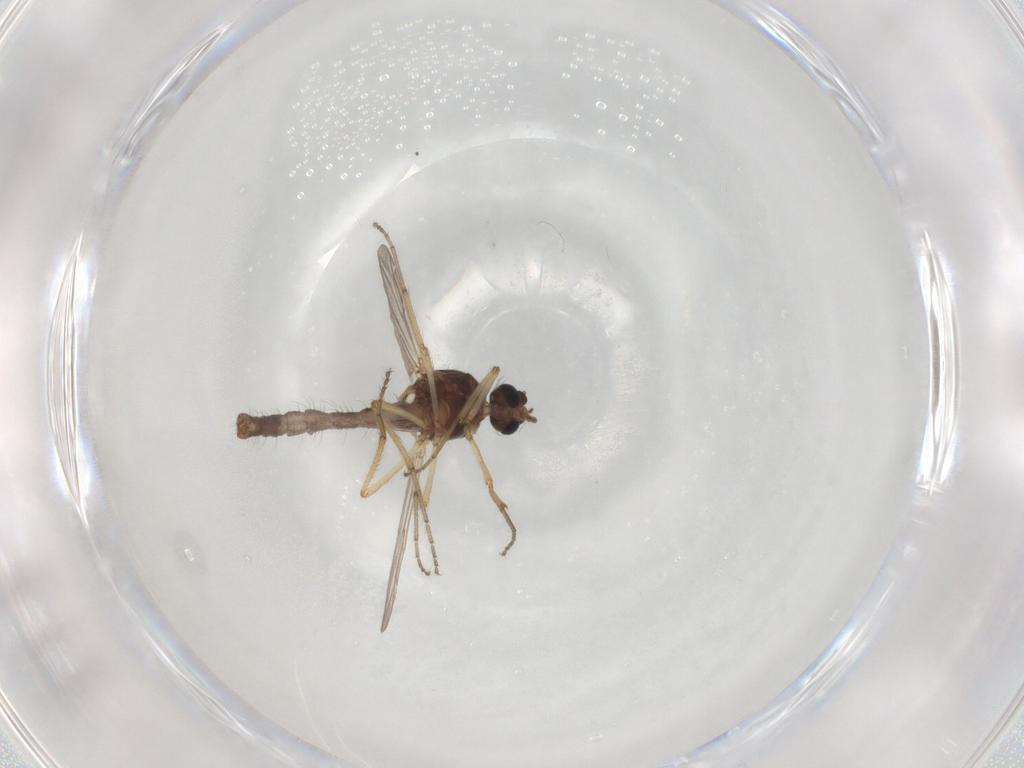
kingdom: Animalia
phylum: Arthropoda
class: Insecta
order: Diptera
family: Ceratopogonidae
